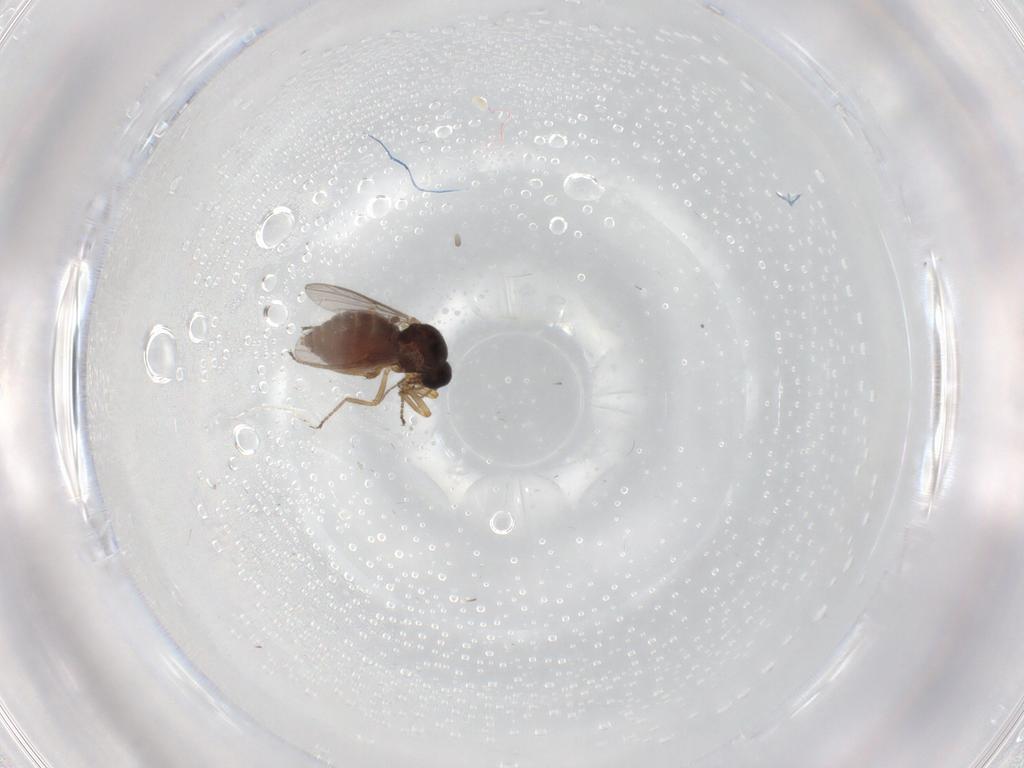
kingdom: Animalia
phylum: Arthropoda
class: Insecta
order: Diptera
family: Ceratopogonidae
